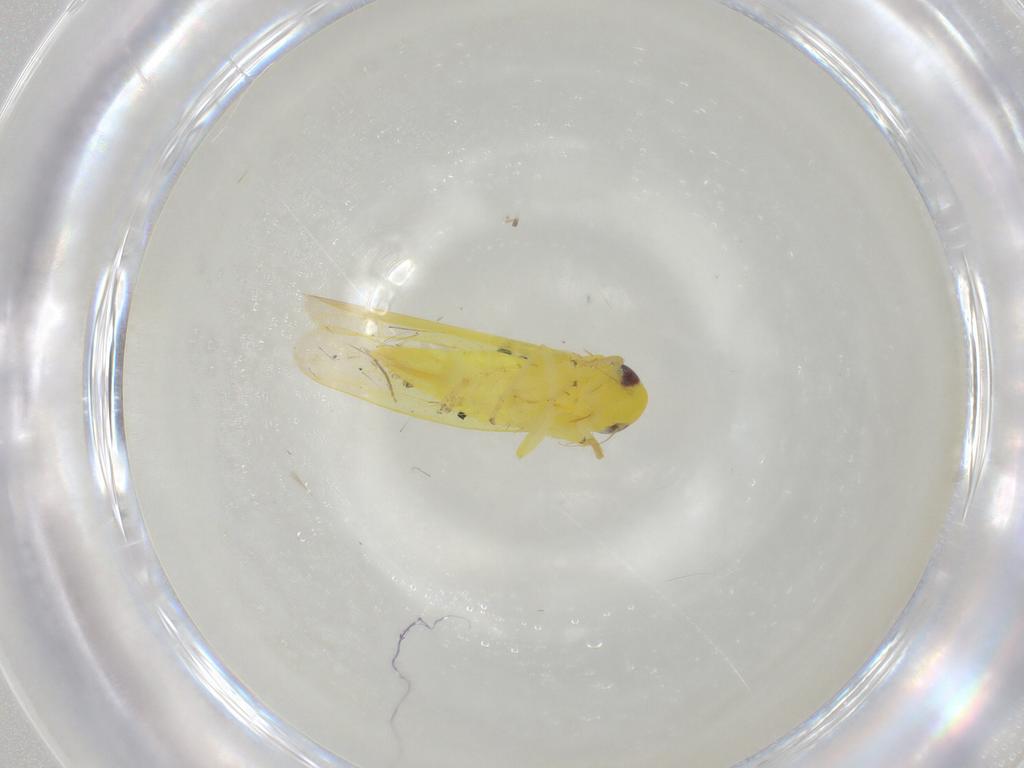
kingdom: Animalia
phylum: Arthropoda
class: Insecta
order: Hemiptera
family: Cicadellidae
